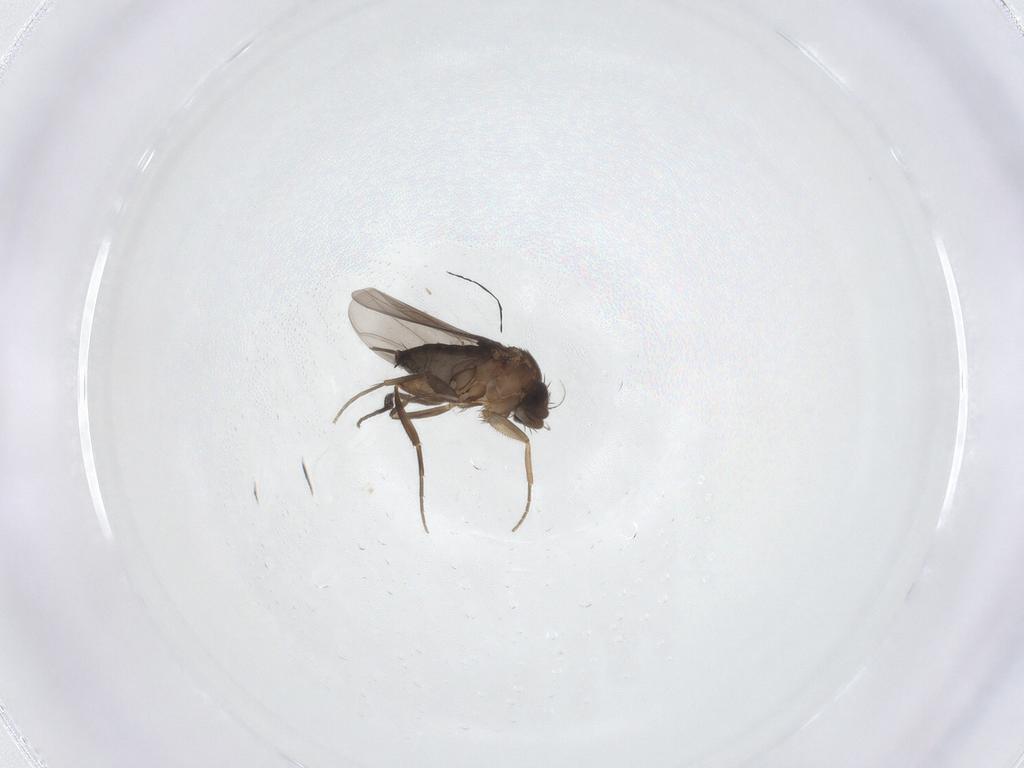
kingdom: Animalia
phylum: Arthropoda
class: Insecta
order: Diptera
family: Phoridae
